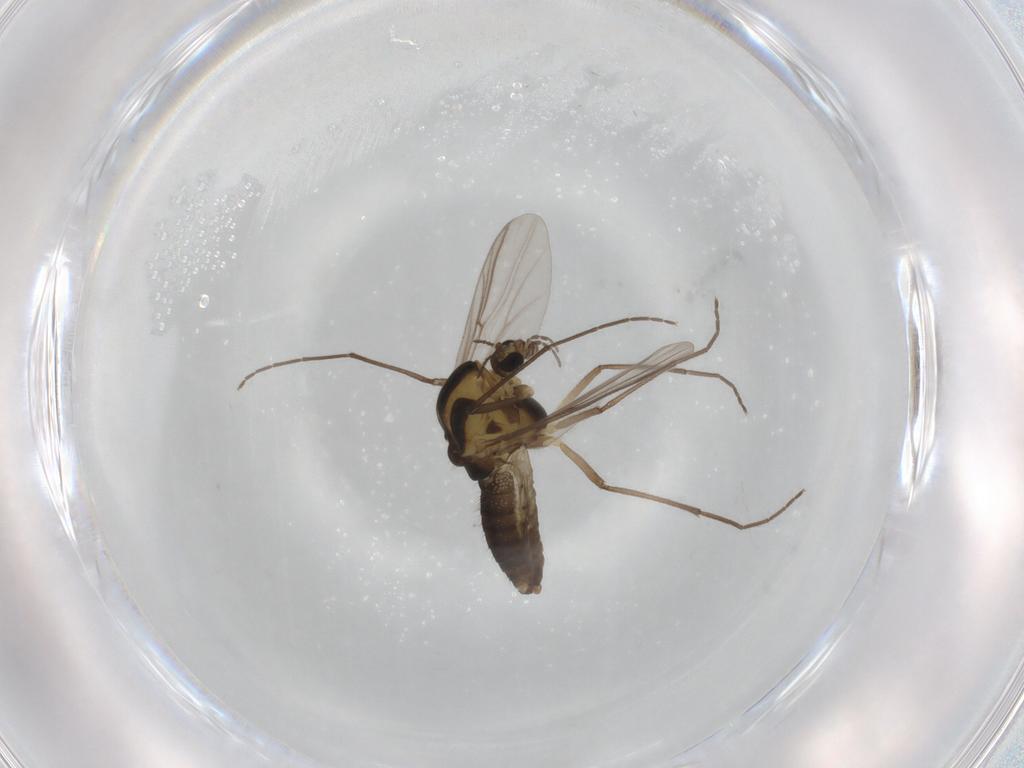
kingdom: Animalia
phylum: Arthropoda
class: Insecta
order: Diptera
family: Chironomidae
